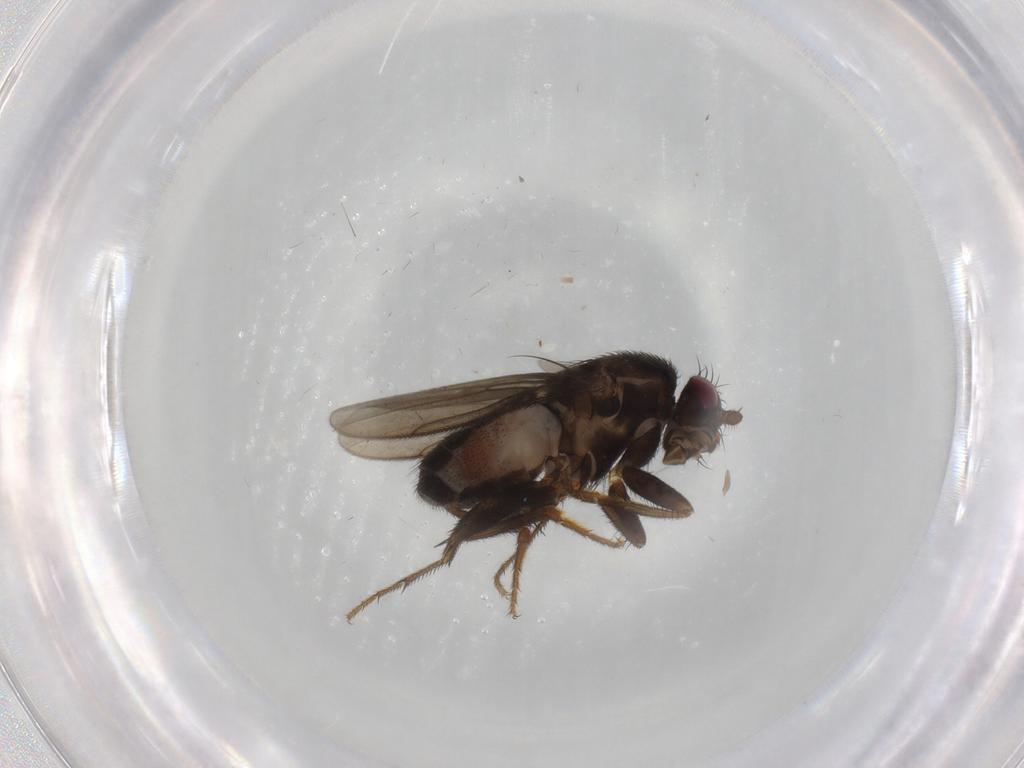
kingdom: Animalia
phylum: Arthropoda
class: Insecta
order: Diptera
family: Sphaeroceridae
